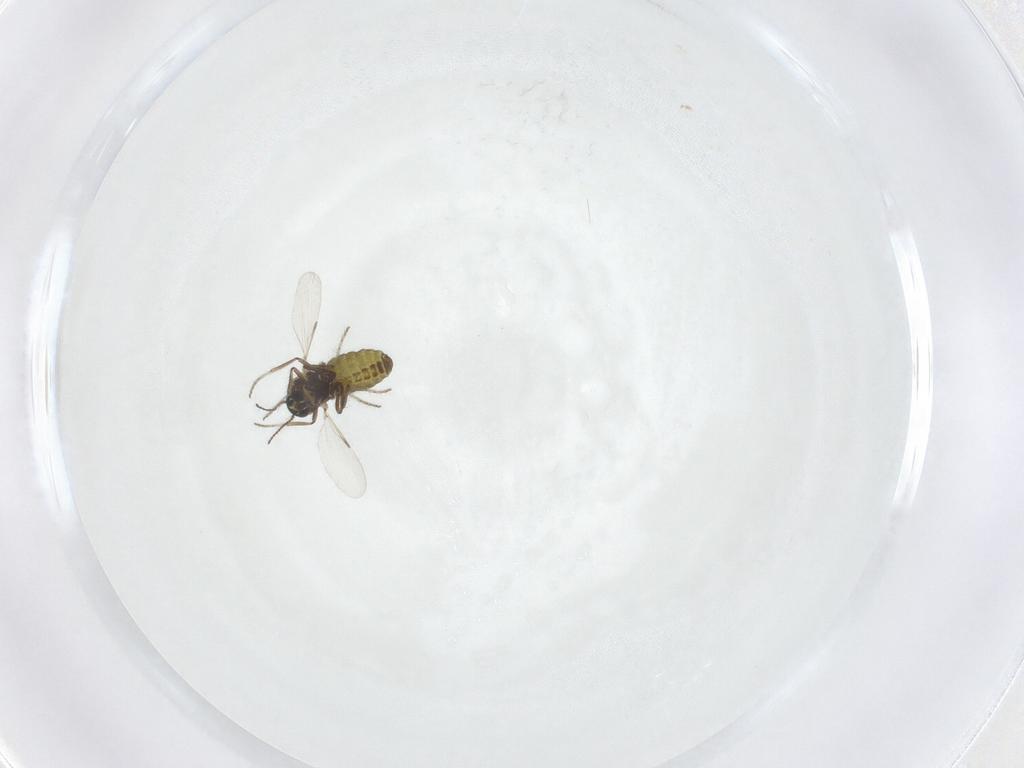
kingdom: Animalia
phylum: Arthropoda
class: Insecta
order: Diptera
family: Ceratopogonidae
